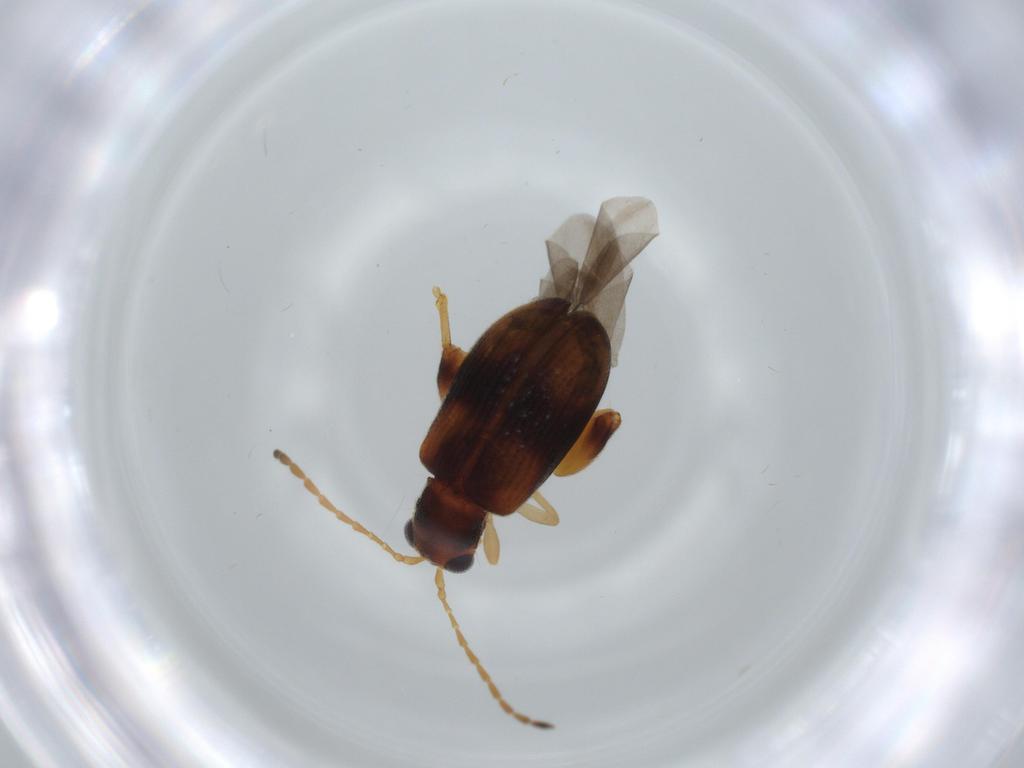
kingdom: Animalia
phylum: Arthropoda
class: Insecta
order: Coleoptera
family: Chrysomelidae
